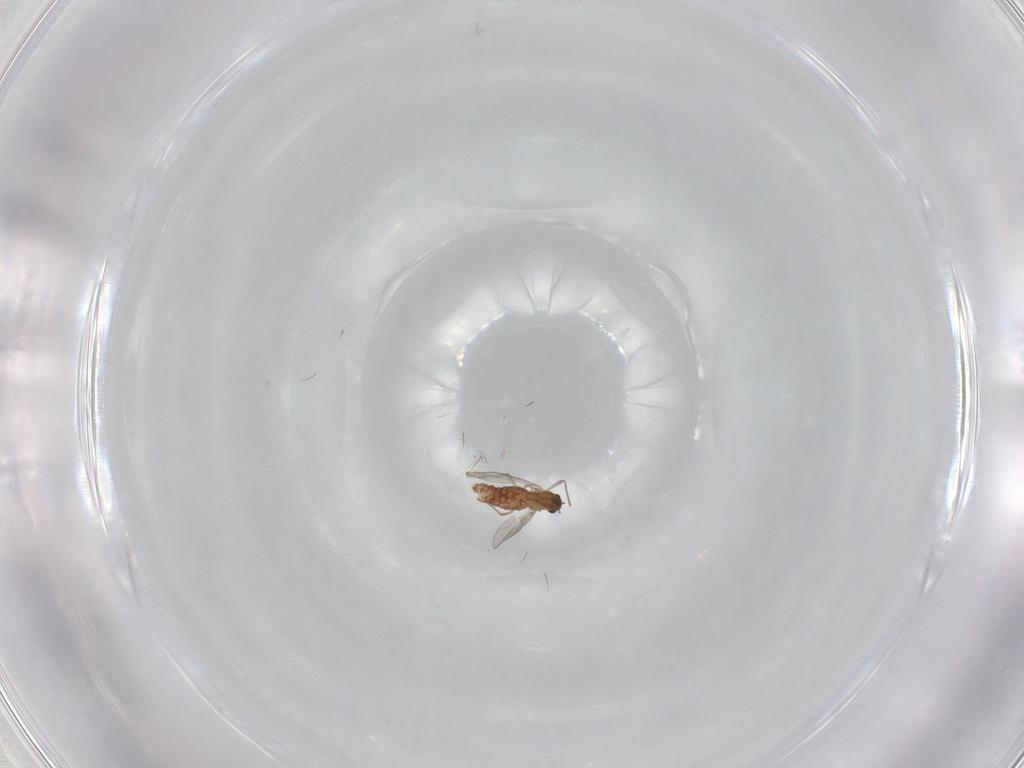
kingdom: Animalia
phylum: Arthropoda
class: Insecta
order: Diptera
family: Chironomidae
